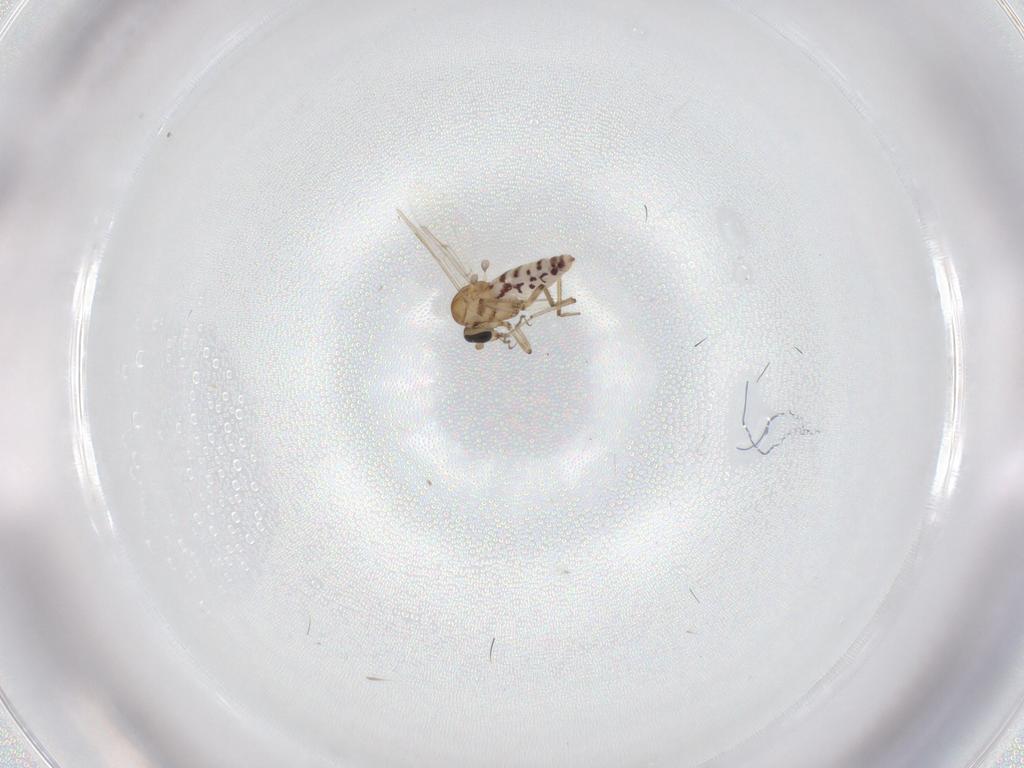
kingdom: Animalia
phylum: Arthropoda
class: Insecta
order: Diptera
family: Ceratopogonidae
